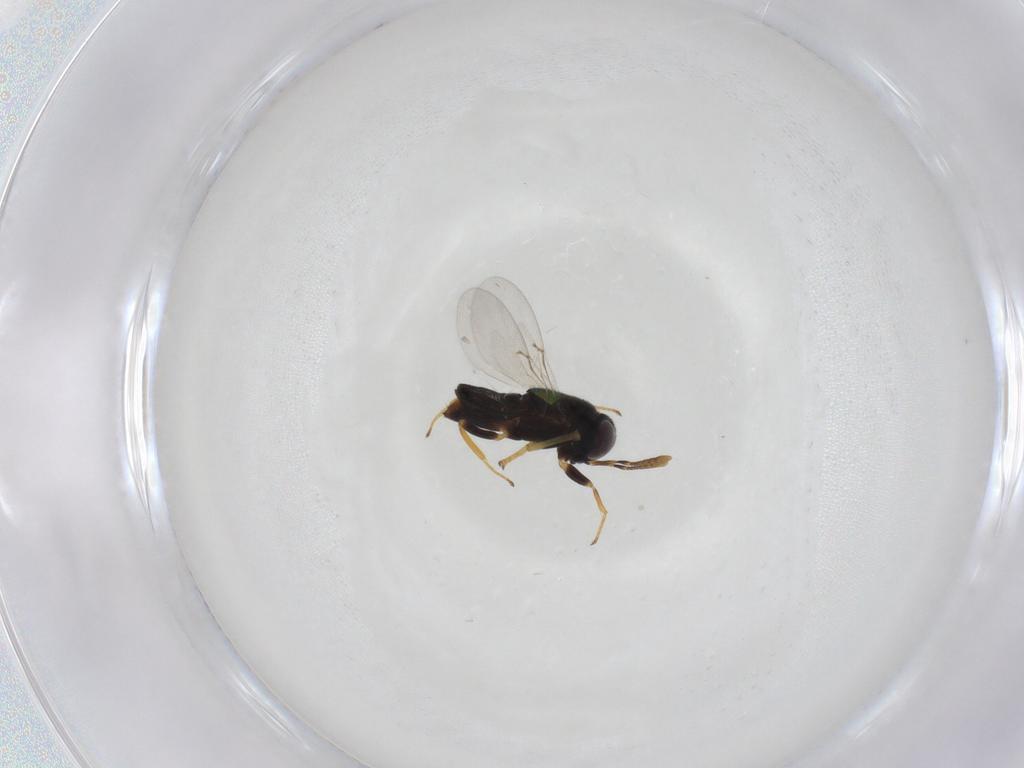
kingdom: Animalia
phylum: Arthropoda
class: Insecta
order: Hymenoptera
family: Encyrtidae
